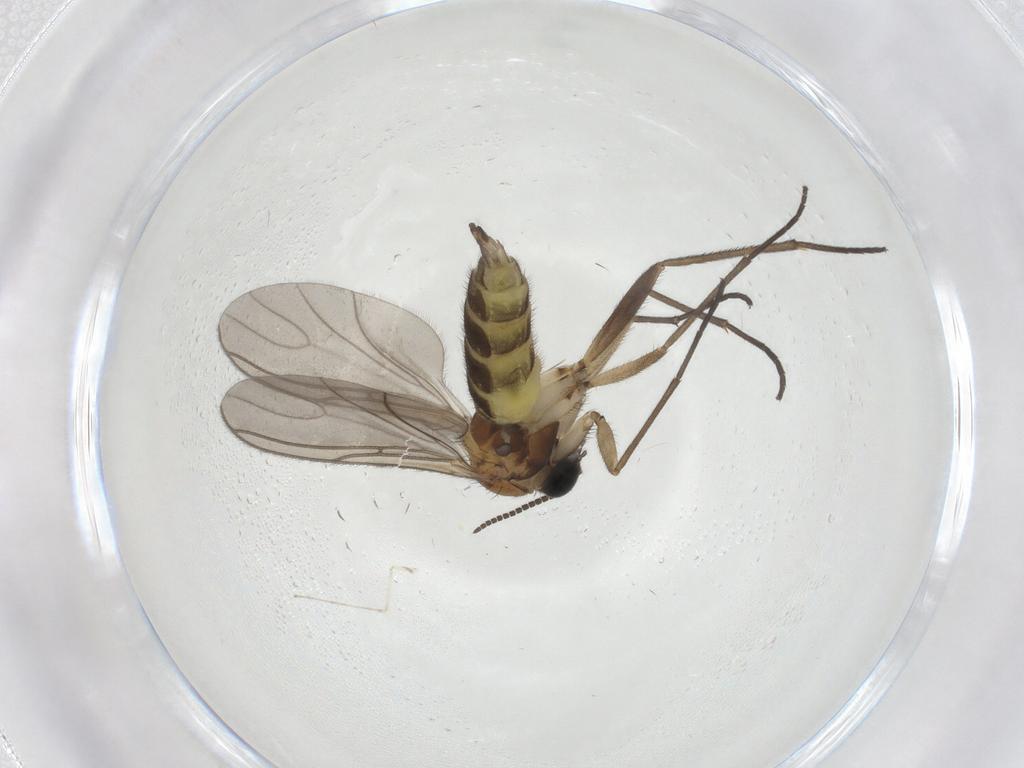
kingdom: Animalia
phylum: Arthropoda
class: Insecta
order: Diptera
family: Sciaridae
